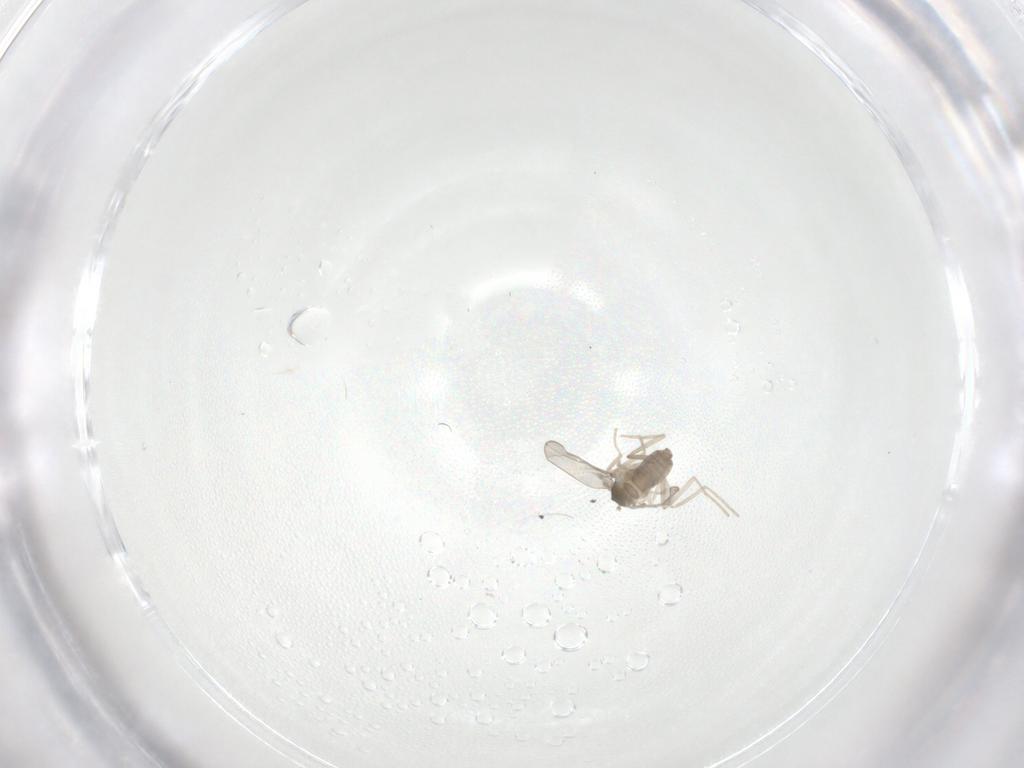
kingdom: Animalia
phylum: Arthropoda
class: Insecta
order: Diptera
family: Cecidomyiidae
